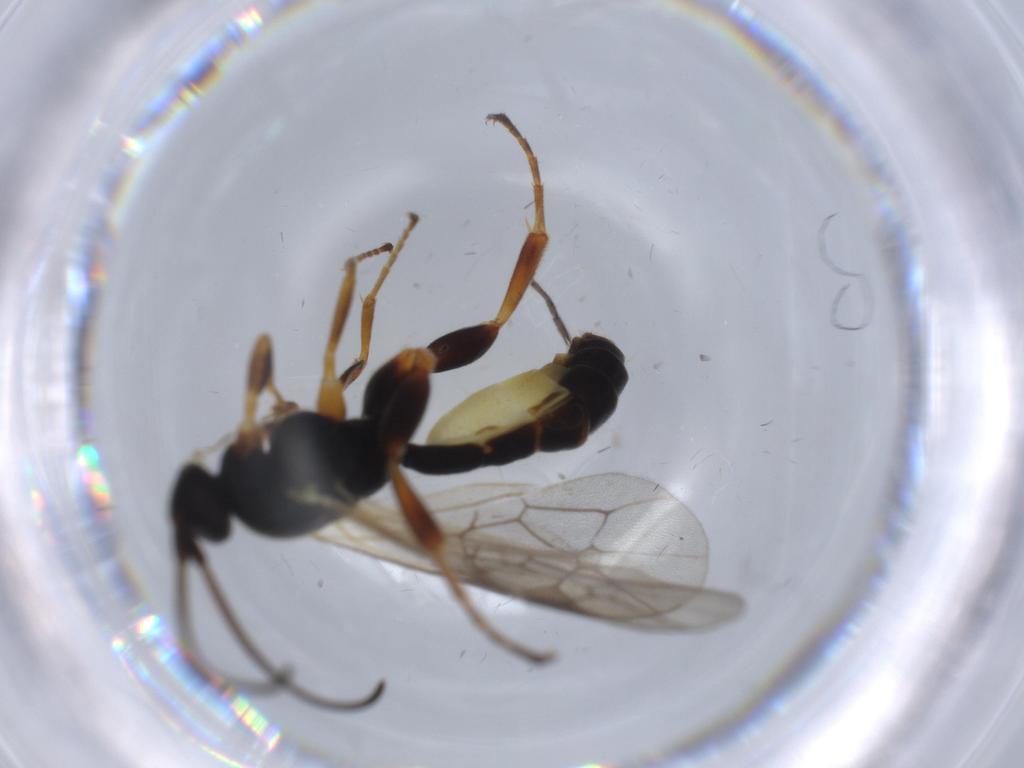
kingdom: Animalia
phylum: Arthropoda
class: Insecta
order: Hymenoptera
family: Ichneumonidae
